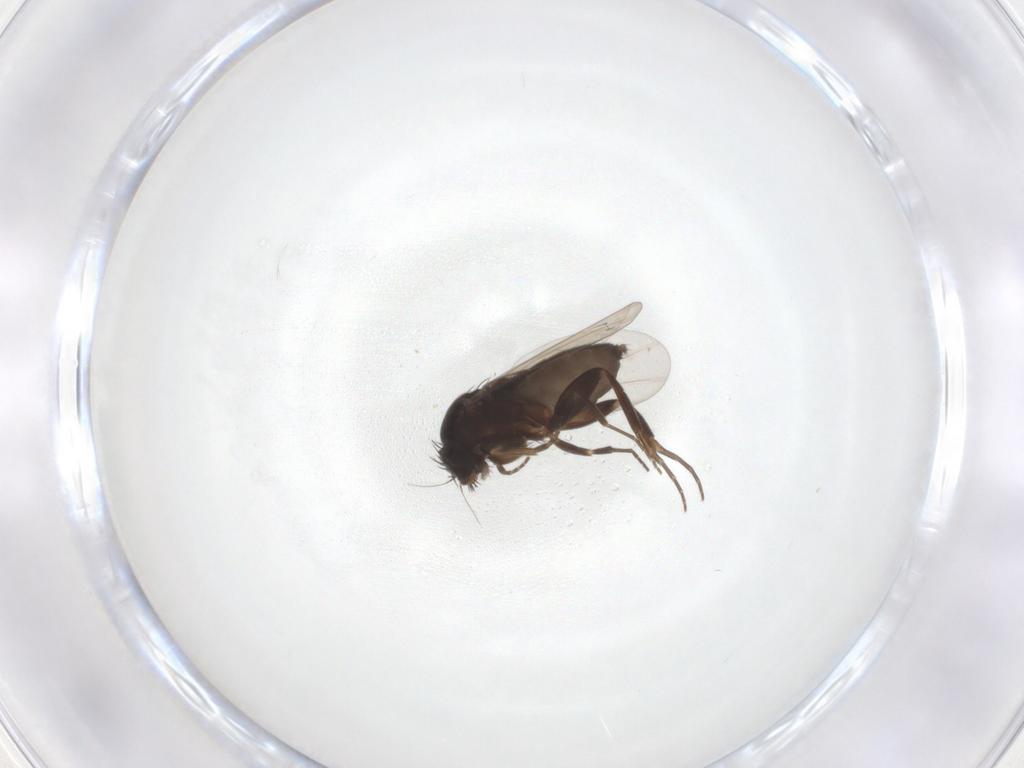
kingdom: Animalia
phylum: Arthropoda
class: Insecta
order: Diptera
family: Phoridae
